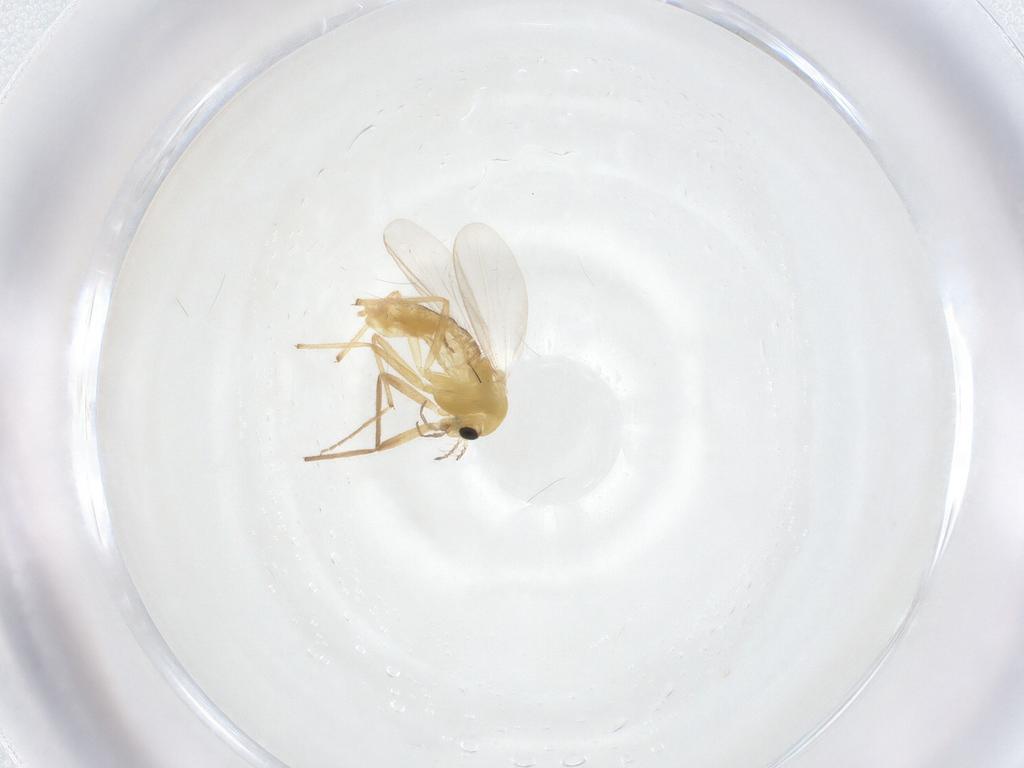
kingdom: Animalia
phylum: Arthropoda
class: Insecta
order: Diptera
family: Chironomidae
